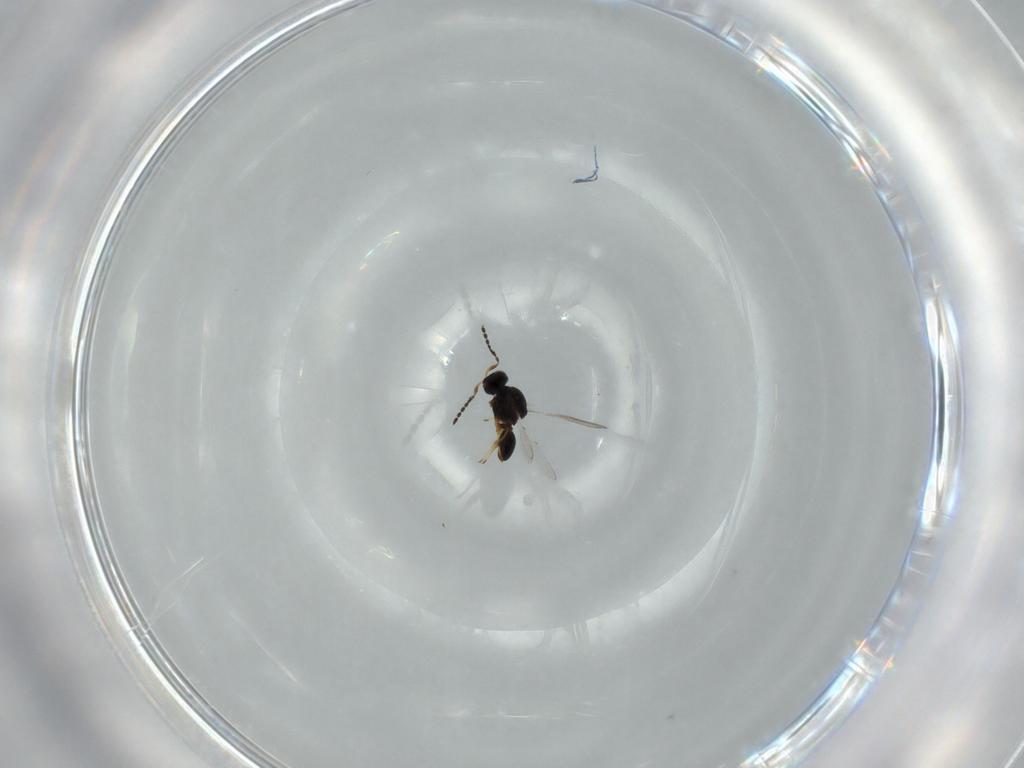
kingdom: Animalia
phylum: Arthropoda
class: Insecta
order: Hymenoptera
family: Platygastridae
